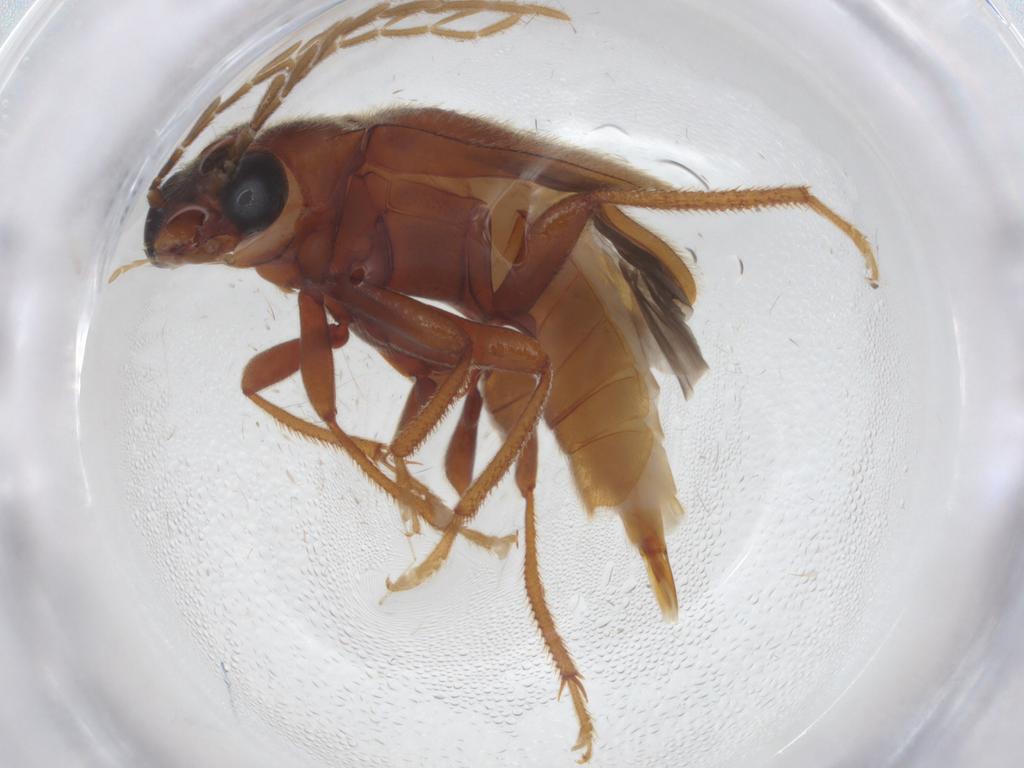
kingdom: Animalia
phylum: Arthropoda
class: Insecta
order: Coleoptera
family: Ptilodactylidae
